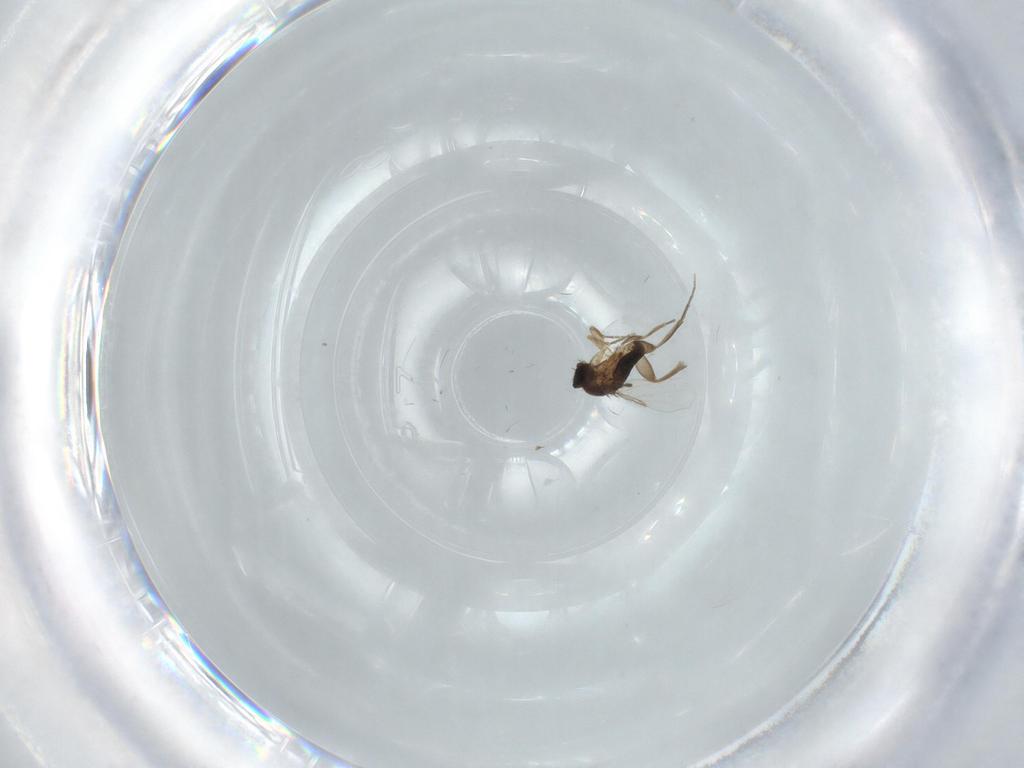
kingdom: Animalia
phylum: Arthropoda
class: Insecta
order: Diptera
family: Phoridae
